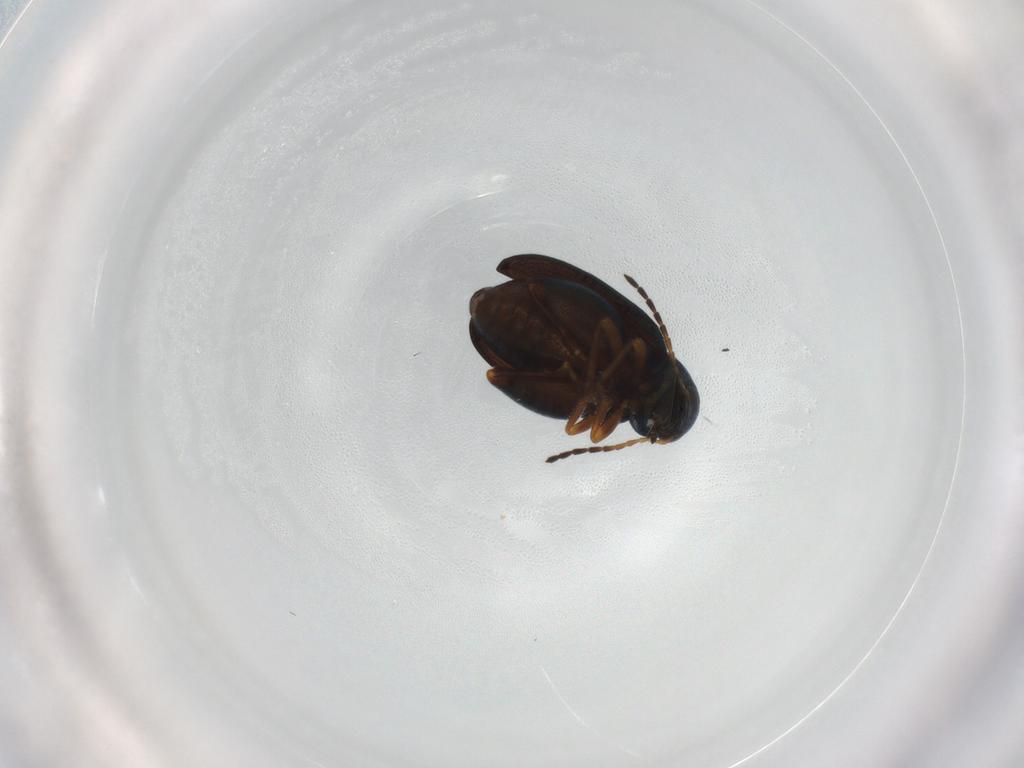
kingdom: Animalia
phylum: Arthropoda
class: Insecta
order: Coleoptera
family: Chrysomelidae
